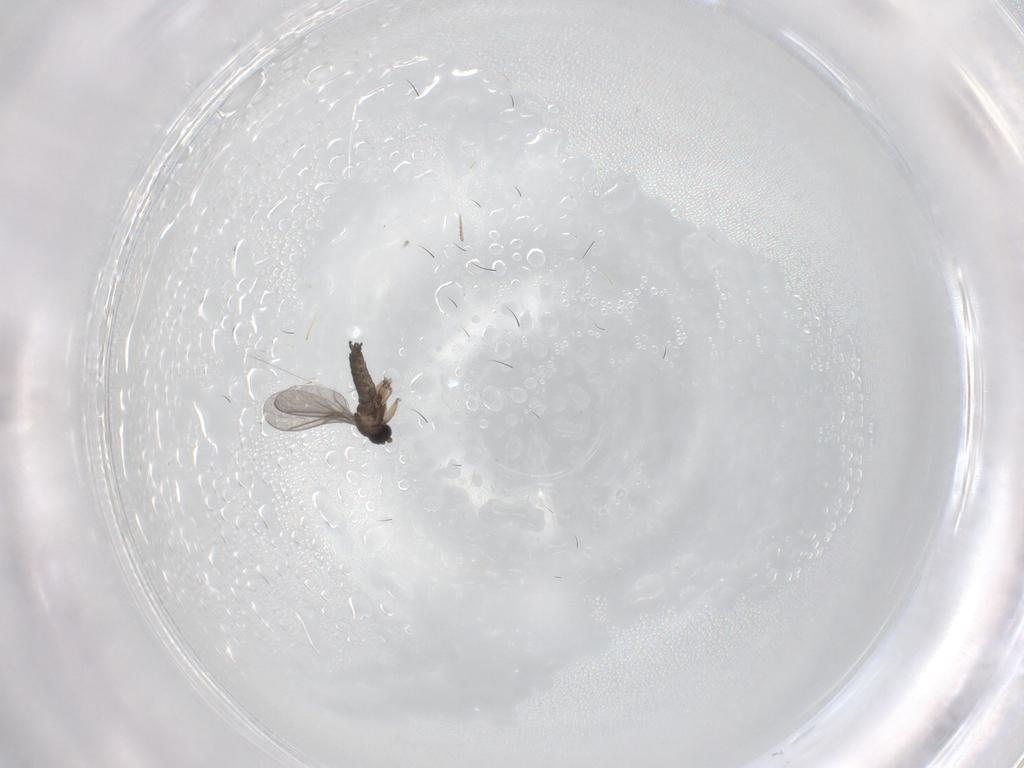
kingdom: Animalia
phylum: Arthropoda
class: Insecta
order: Diptera
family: Sciaridae
